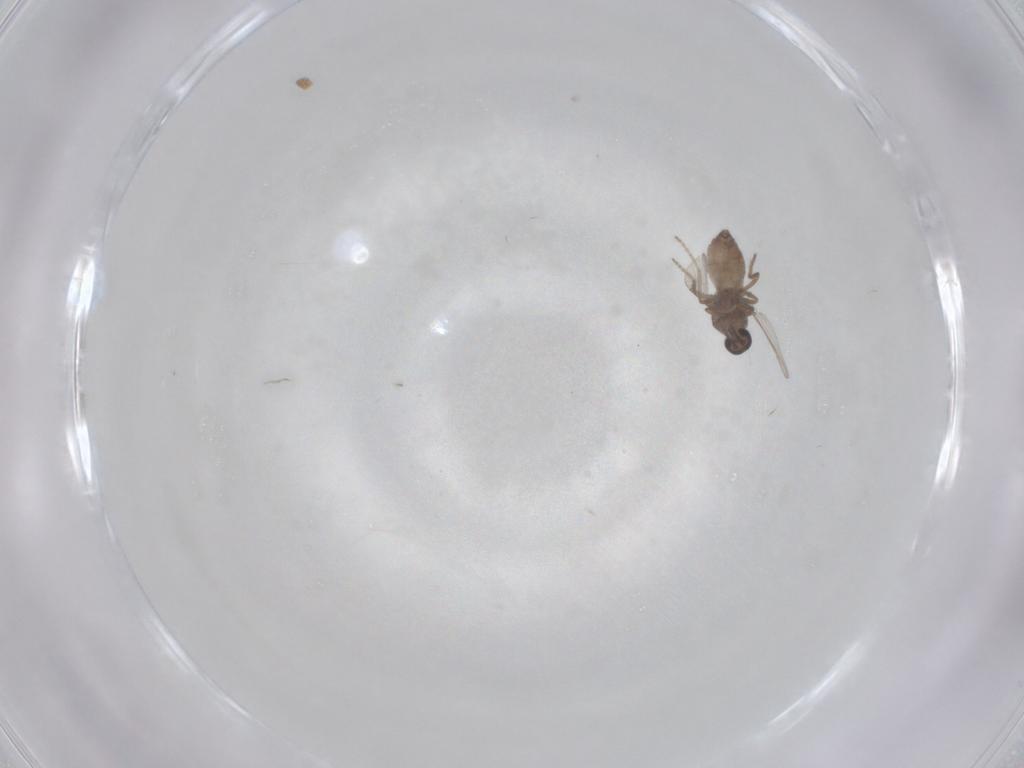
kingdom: Animalia
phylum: Arthropoda
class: Insecta
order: Diptera
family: Ceratopogonidae
